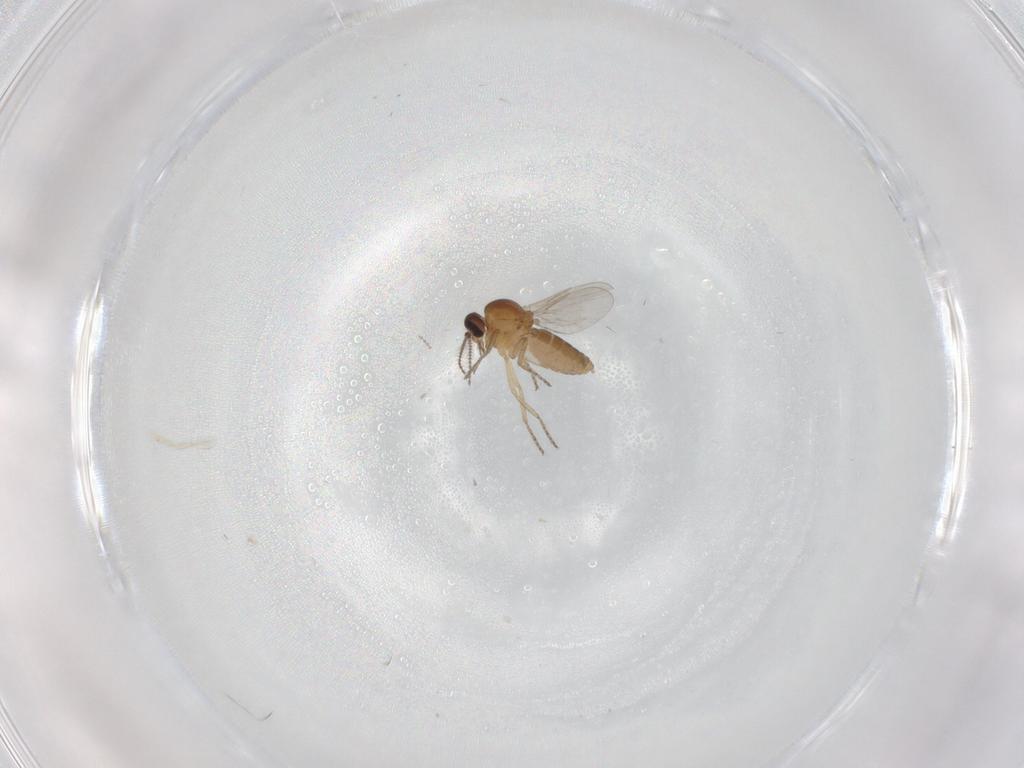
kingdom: Animalia
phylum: Arthropoda
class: Insecta
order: Diptera
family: Ceratopogonidae
